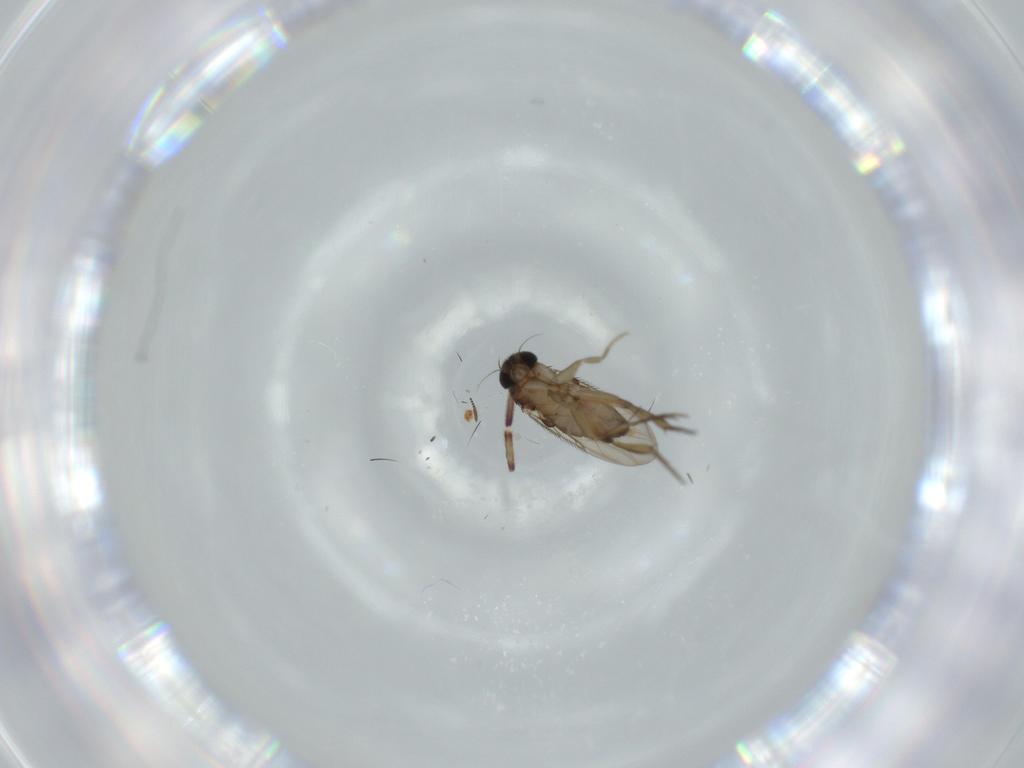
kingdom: Animalia
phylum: Arthropoda
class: Insecta
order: Diptera
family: Phoridae
